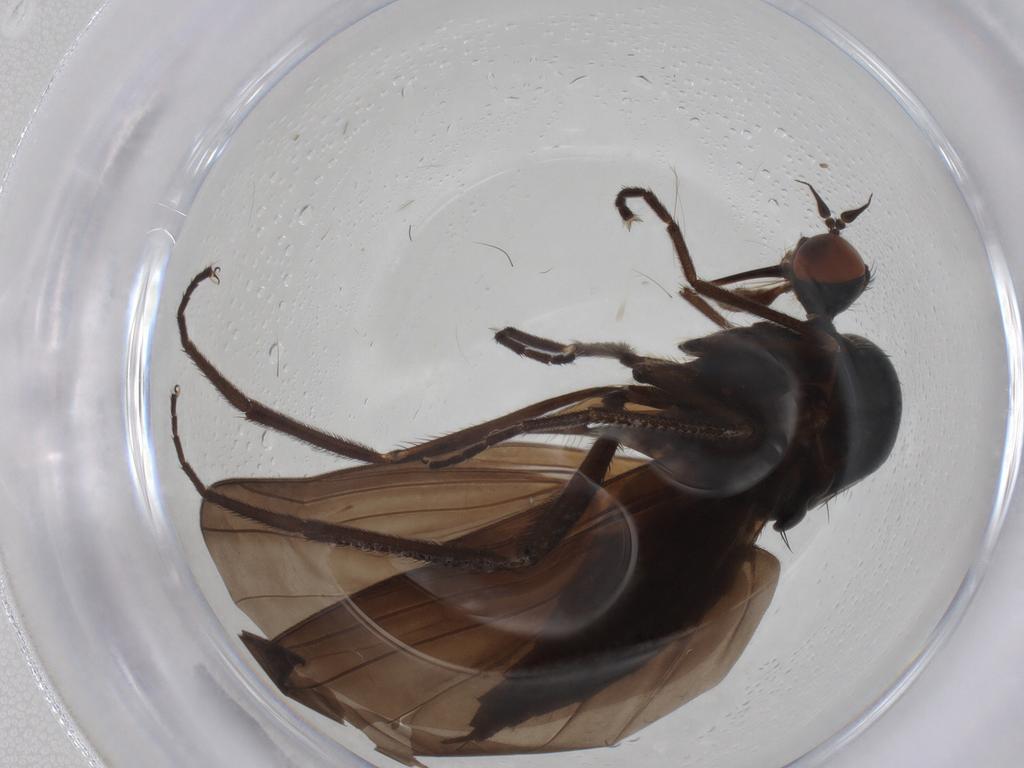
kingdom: Animalia
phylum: Arthropoda
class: Insecta
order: Diptera
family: Empididae
